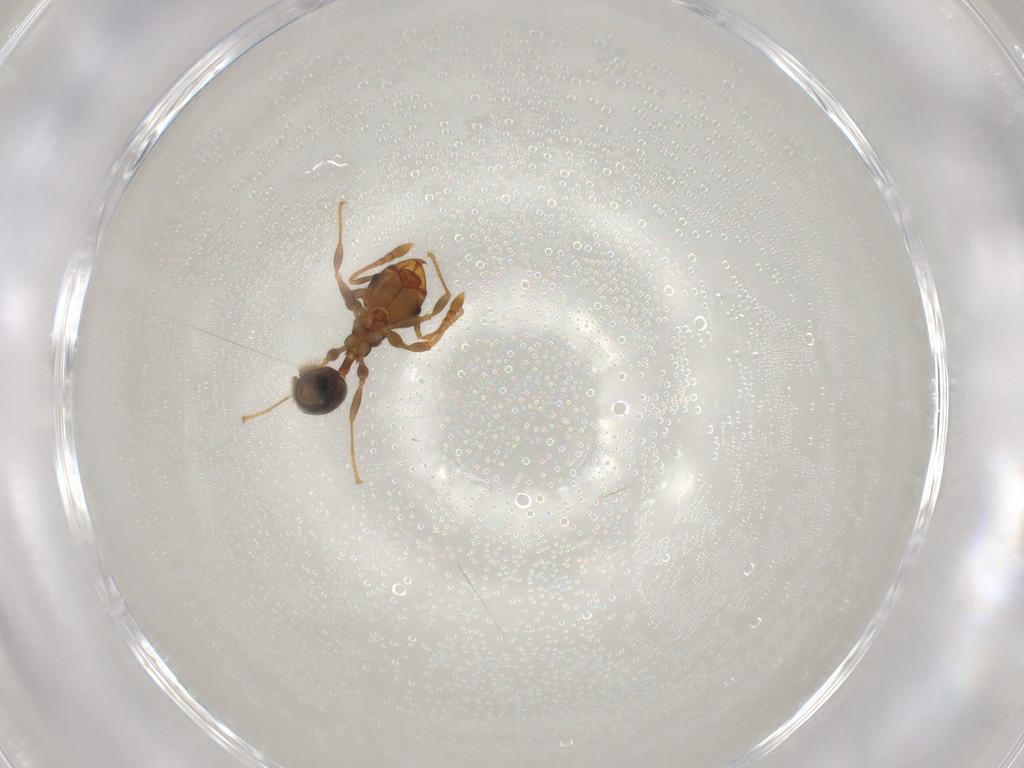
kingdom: Animalia
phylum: Arthropoda
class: Insecta
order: Hymenoptera
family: Formicidae
